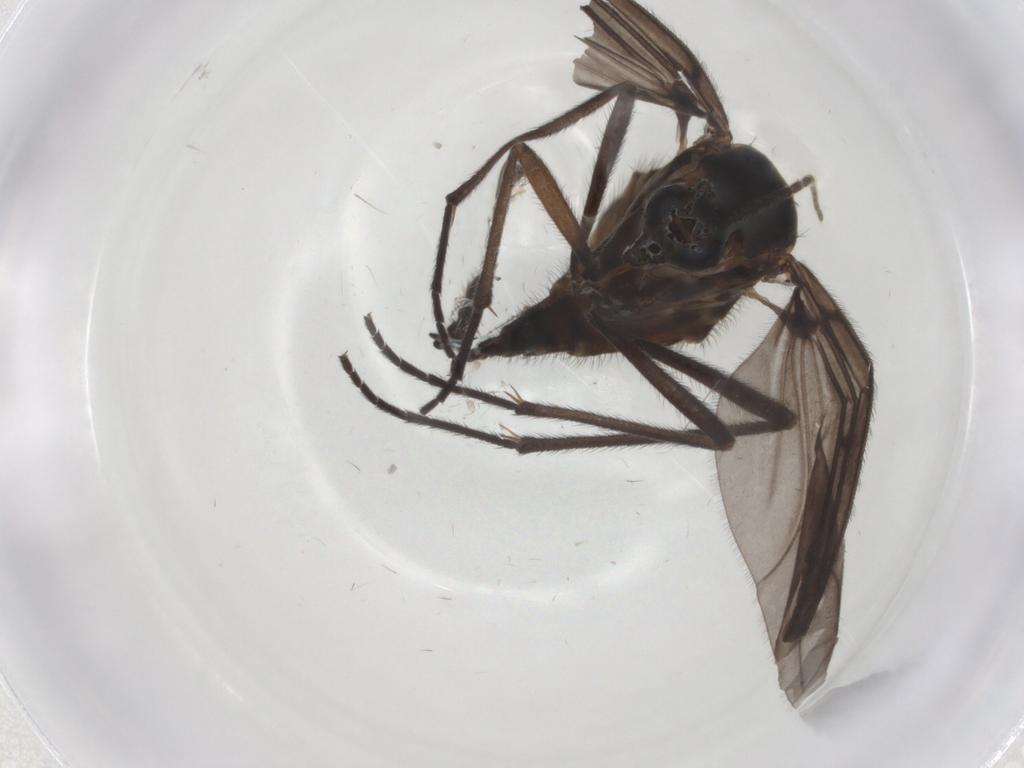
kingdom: Animalia
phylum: Arthropoda
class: Insecta
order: Diptera
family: Sciaridae
